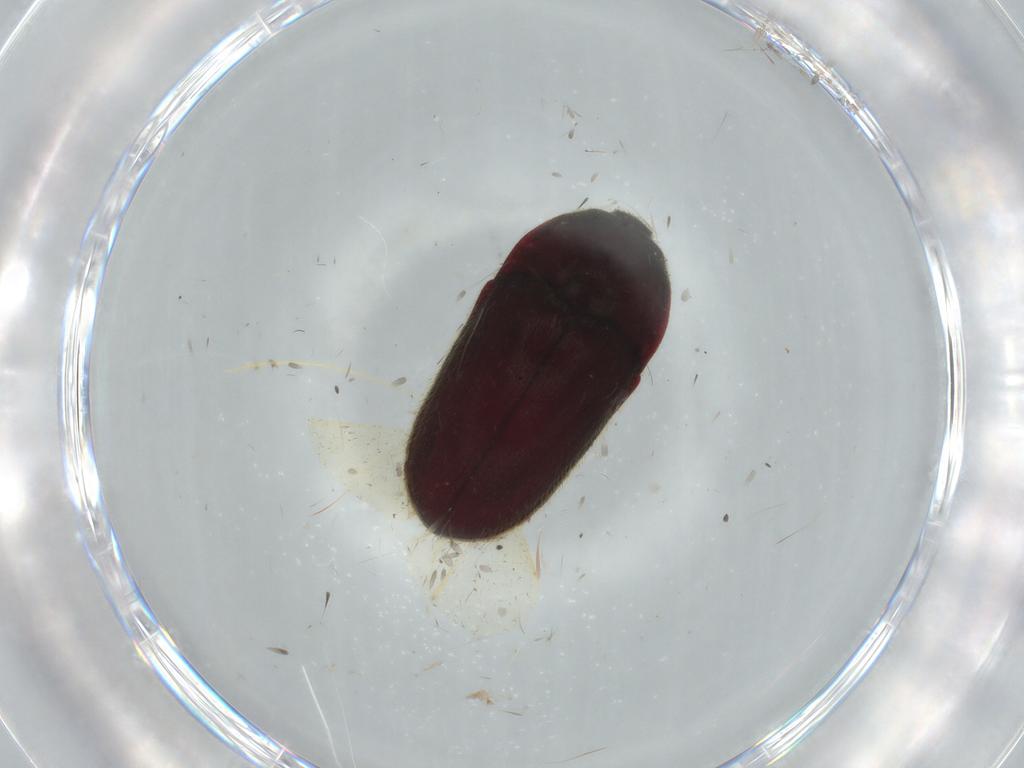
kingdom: Animalia
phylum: Arthropoda
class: Insecta
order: Coleoptera
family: Throscidae
